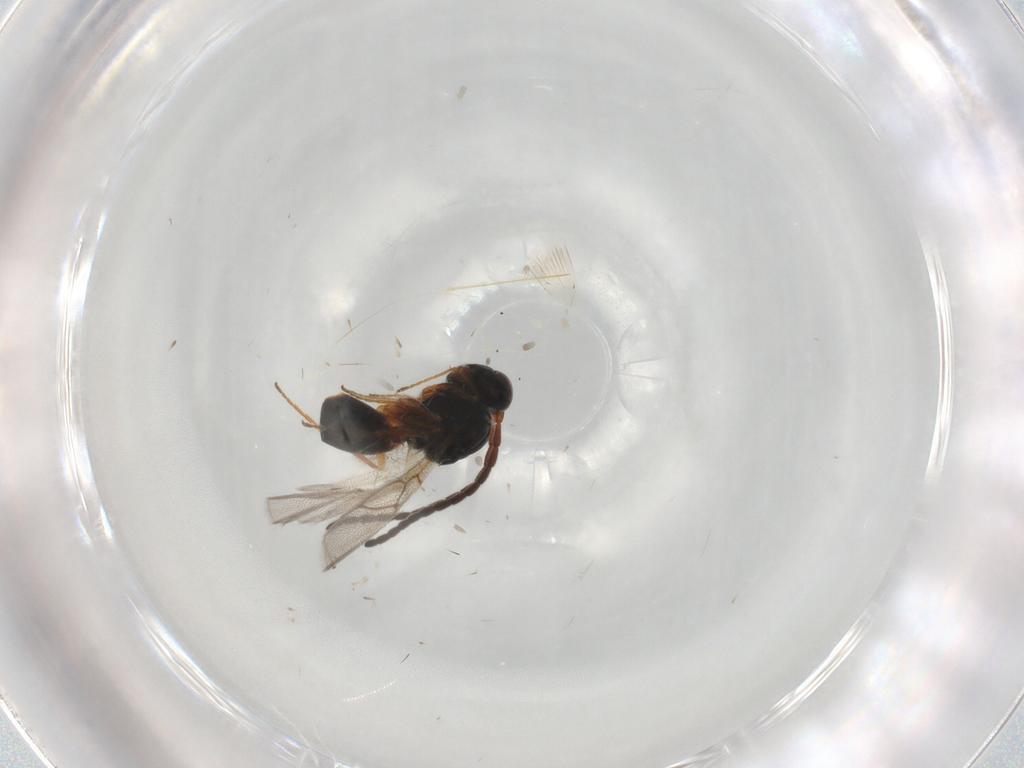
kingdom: Animalia
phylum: Arthropoda
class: Insecta
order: Hymenoptera
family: Figitidae
